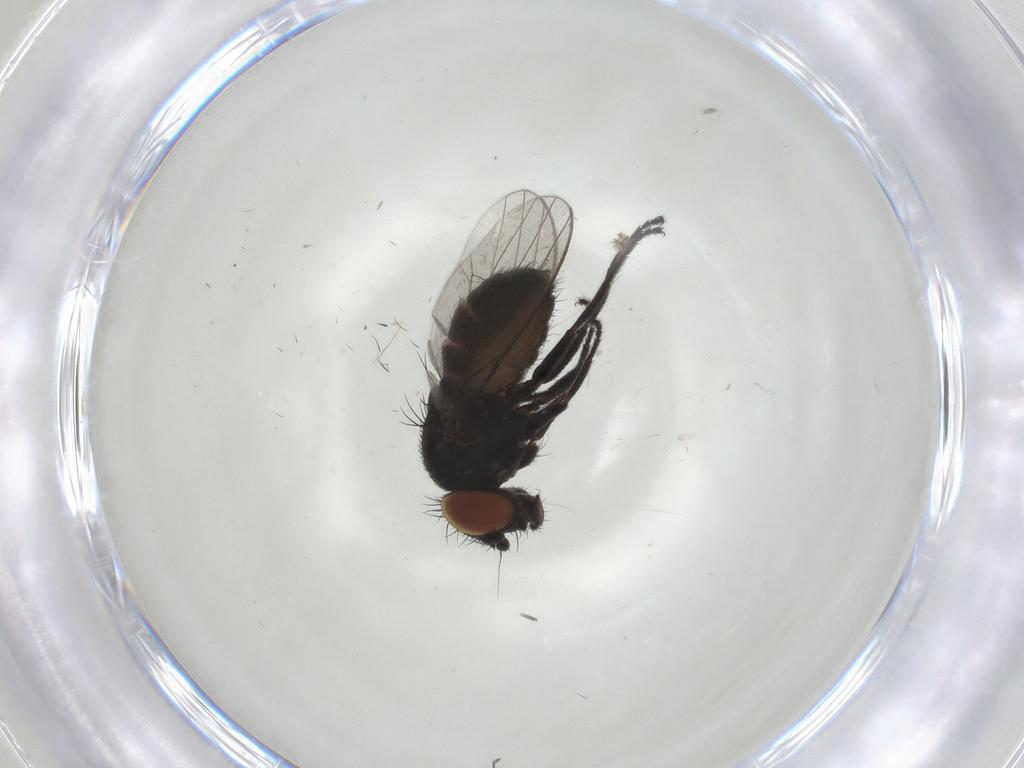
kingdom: Animalia
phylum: Arthropoda
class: Insecta
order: Diptera
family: Milichiidae
